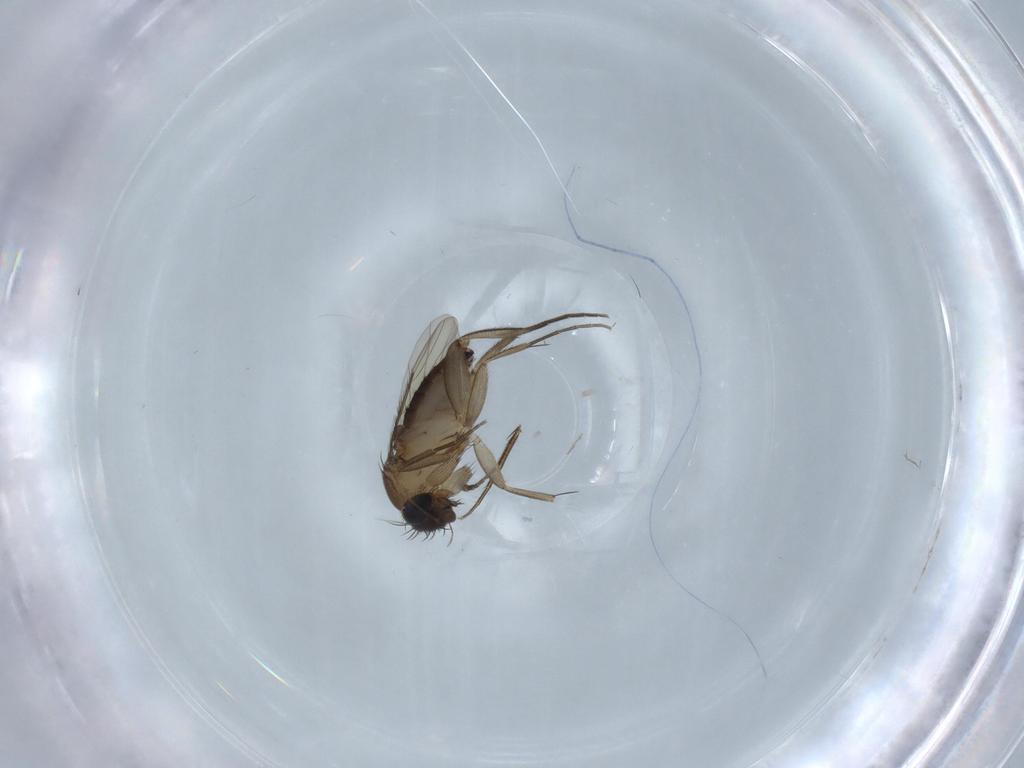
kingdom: Animalia
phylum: Arthropoda
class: Insecta
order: Diptera
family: Phoridae
